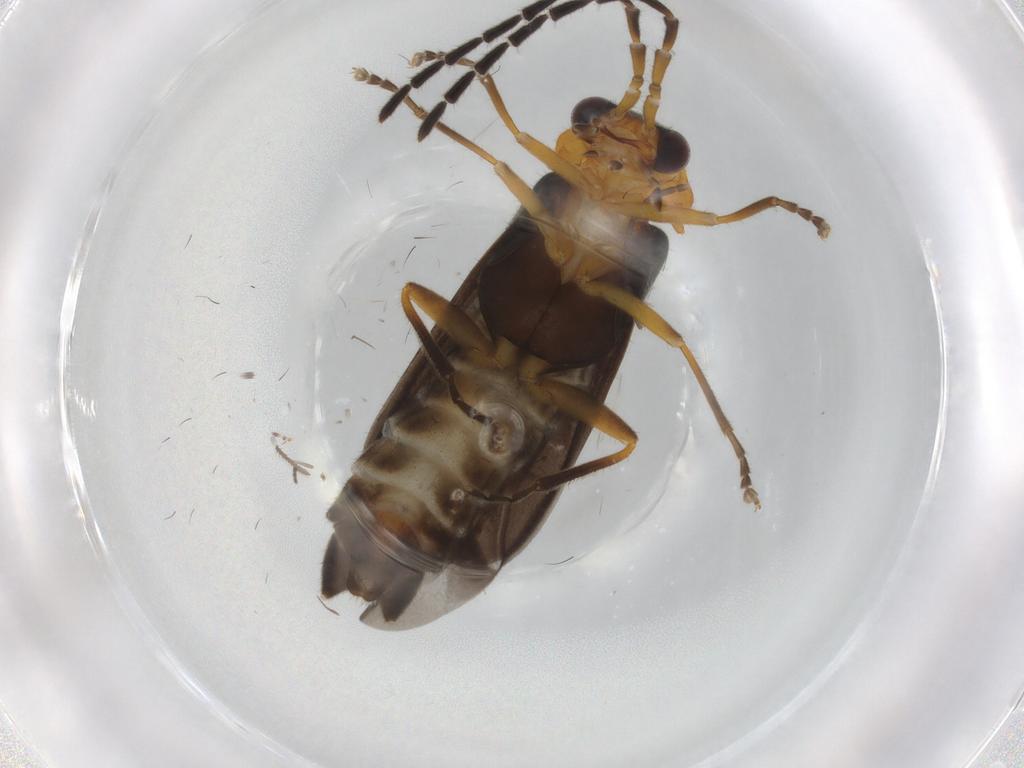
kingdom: Animalia
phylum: Arthropoda
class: Insecta
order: Coleoptera
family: Cantharidae
